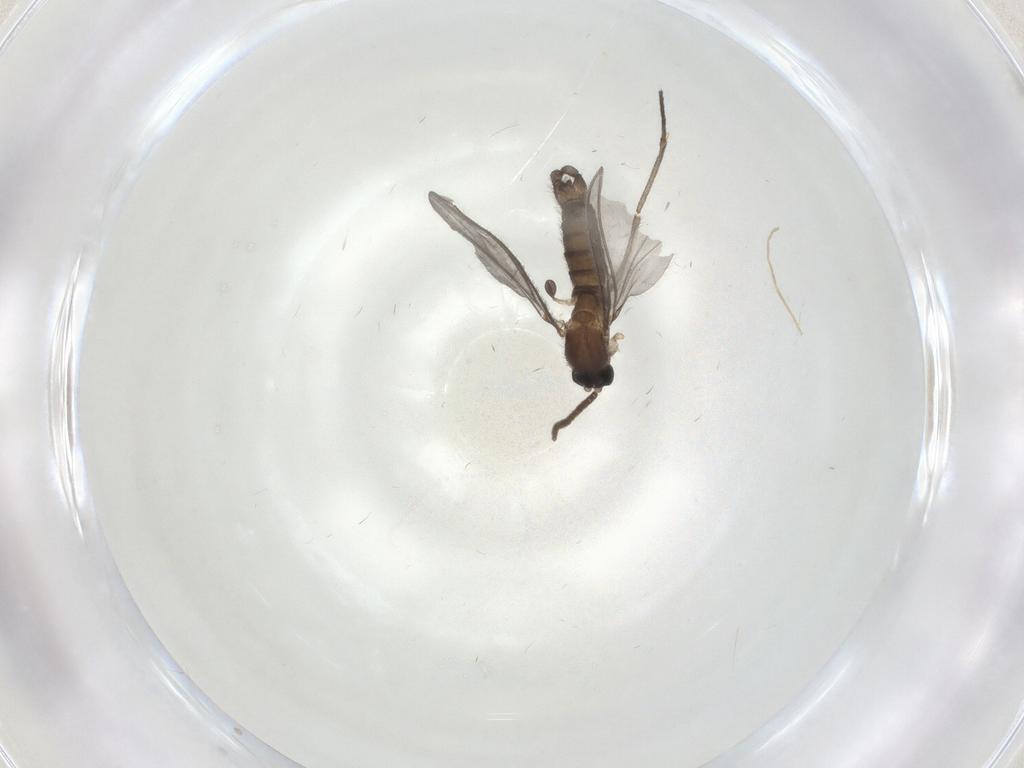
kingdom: Animalia
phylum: Arthropoda
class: Insecta
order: Diptera
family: Chironomidae
